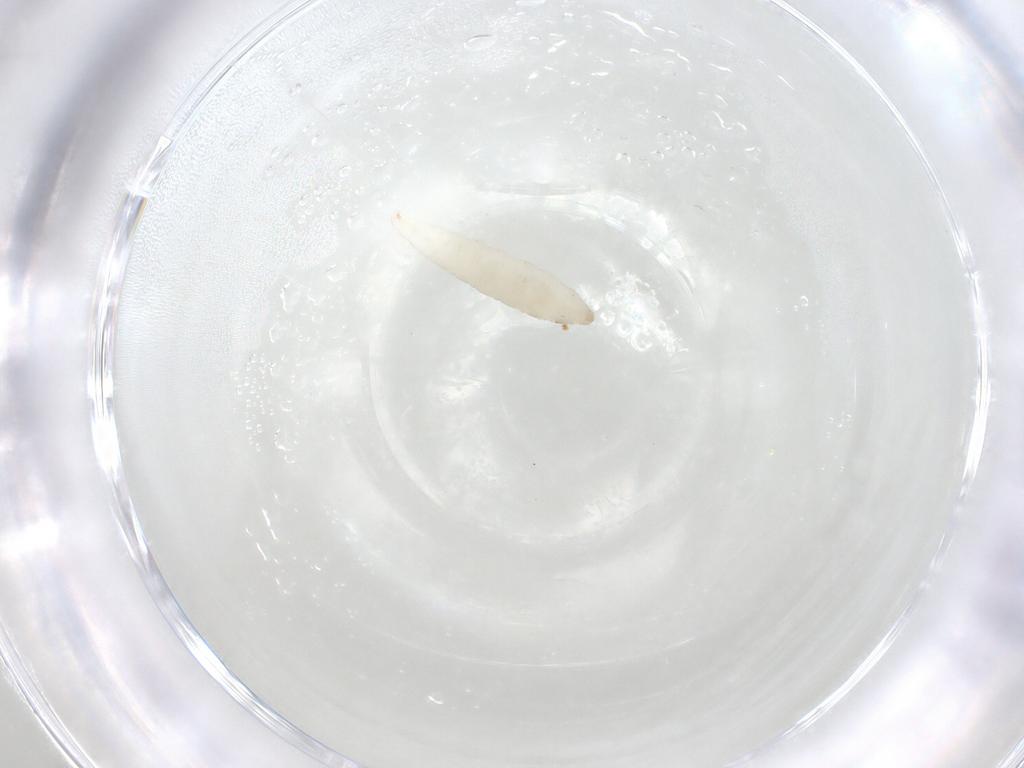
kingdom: Animalia
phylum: Arthropoda
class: Insecta
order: Diptera
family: Phoridae
